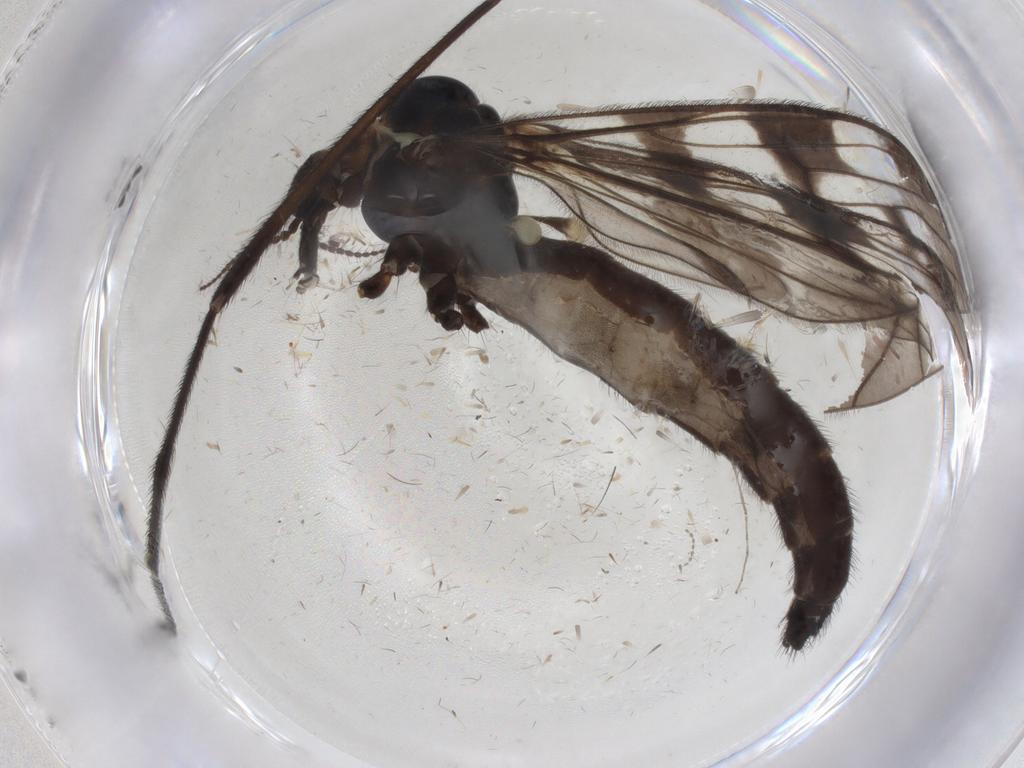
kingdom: Animalia
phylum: Arthropoda
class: Insecta
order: Diptera
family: Limoniidae
